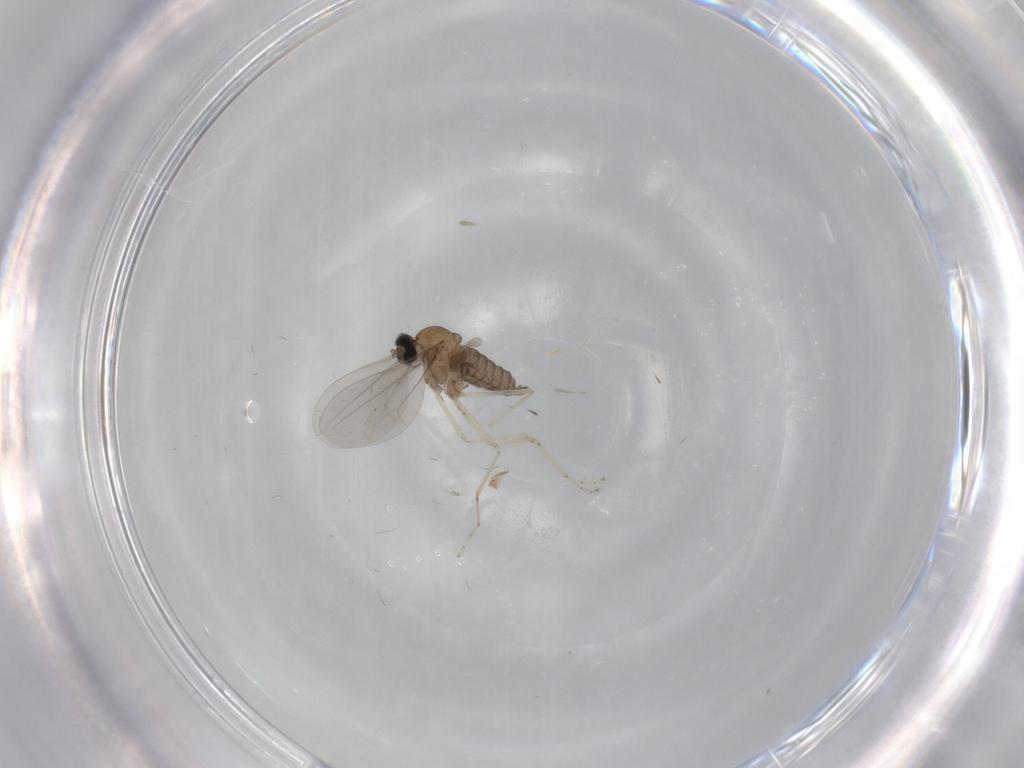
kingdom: Animalia
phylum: Arthropoda
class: Insecta
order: Diptera
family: Cecidomyiidae
